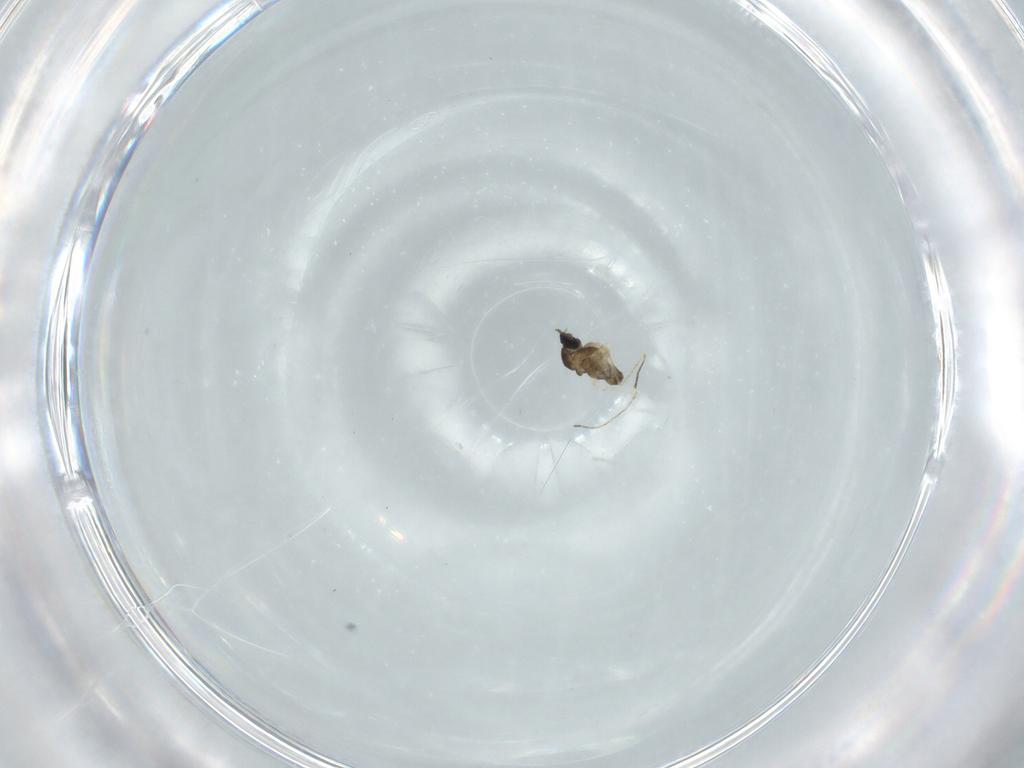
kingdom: Animalia
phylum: Arthropoda
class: Insecta
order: Diptera
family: Cecidomyiidae
